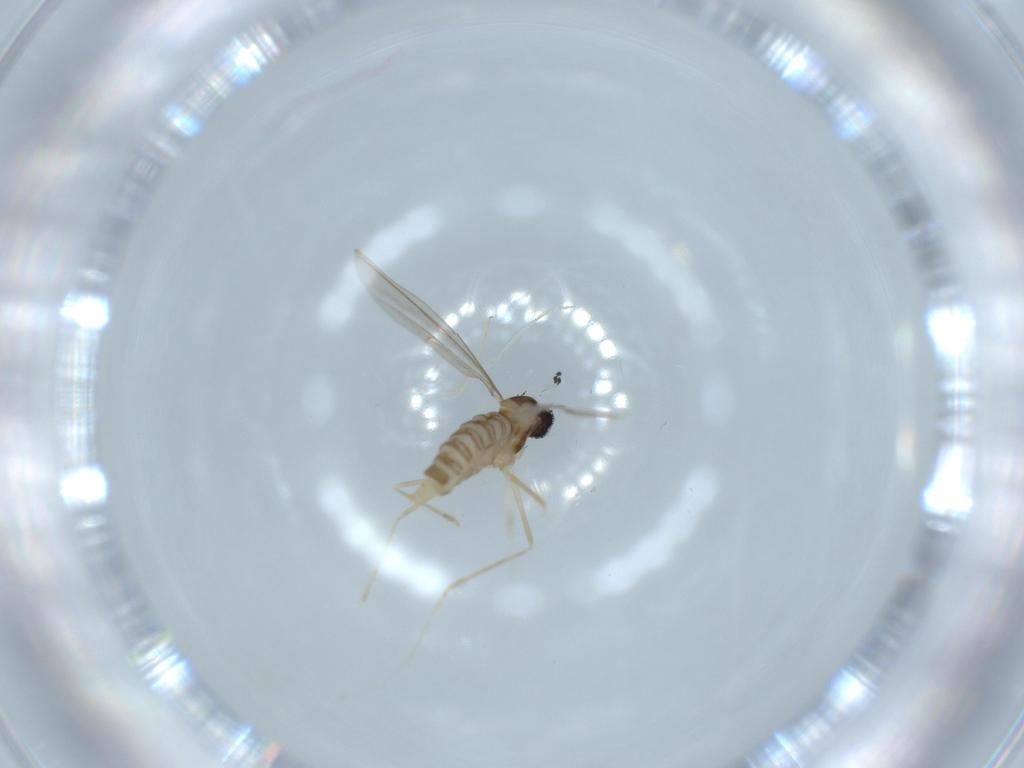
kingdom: Animalia
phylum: Arthropoda
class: Insecta
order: Diptera
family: Cecidomyiidae
